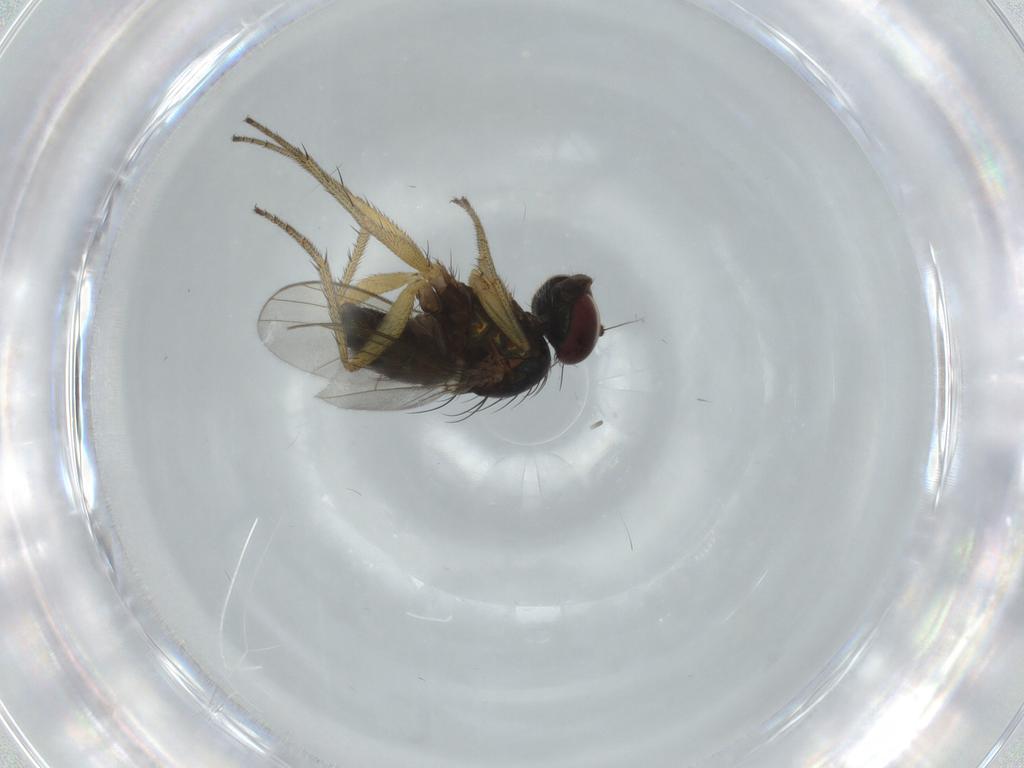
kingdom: Animalia
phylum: Arthropoda
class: Insecta
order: Diptera
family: Dolichopodidae
